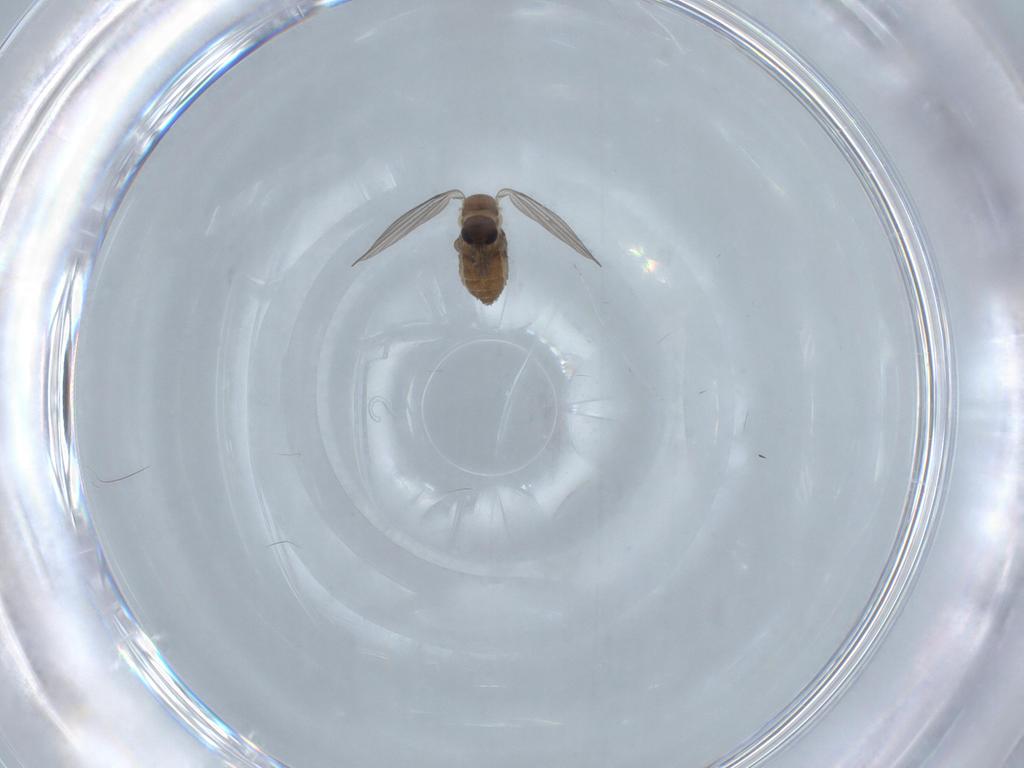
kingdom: Animalia
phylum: Arthropoda
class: Insecta
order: Diptera
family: Psychodidae
